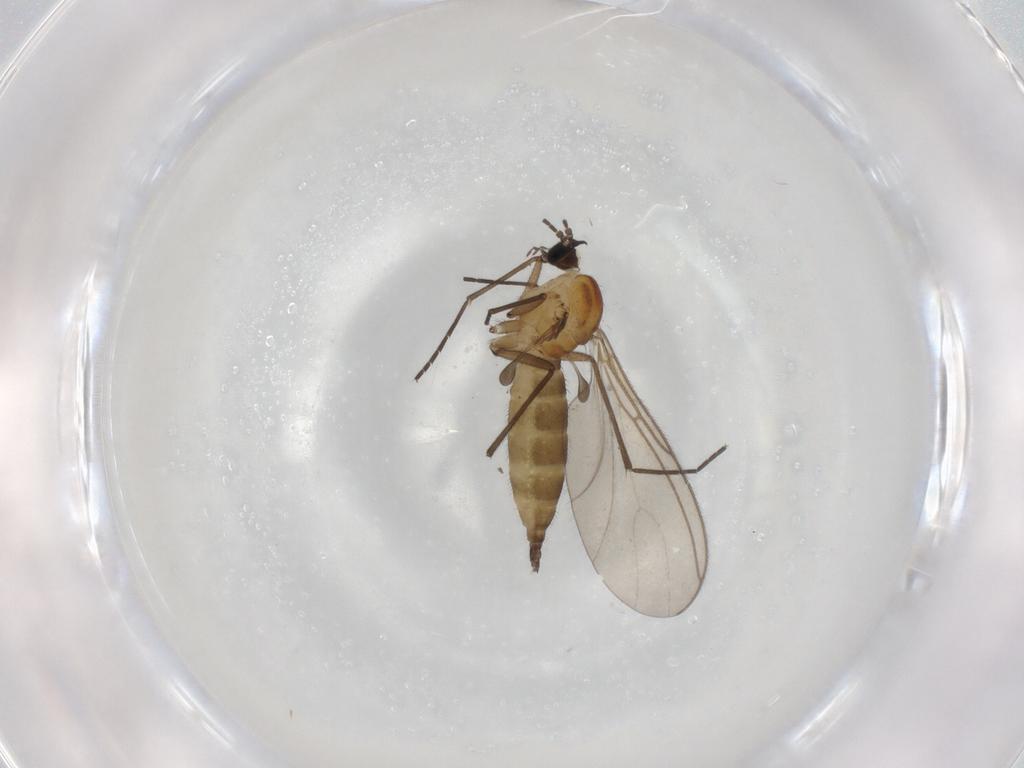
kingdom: Animalia
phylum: Arthropoda
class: Insecta
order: Diptera
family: Sciaridae
